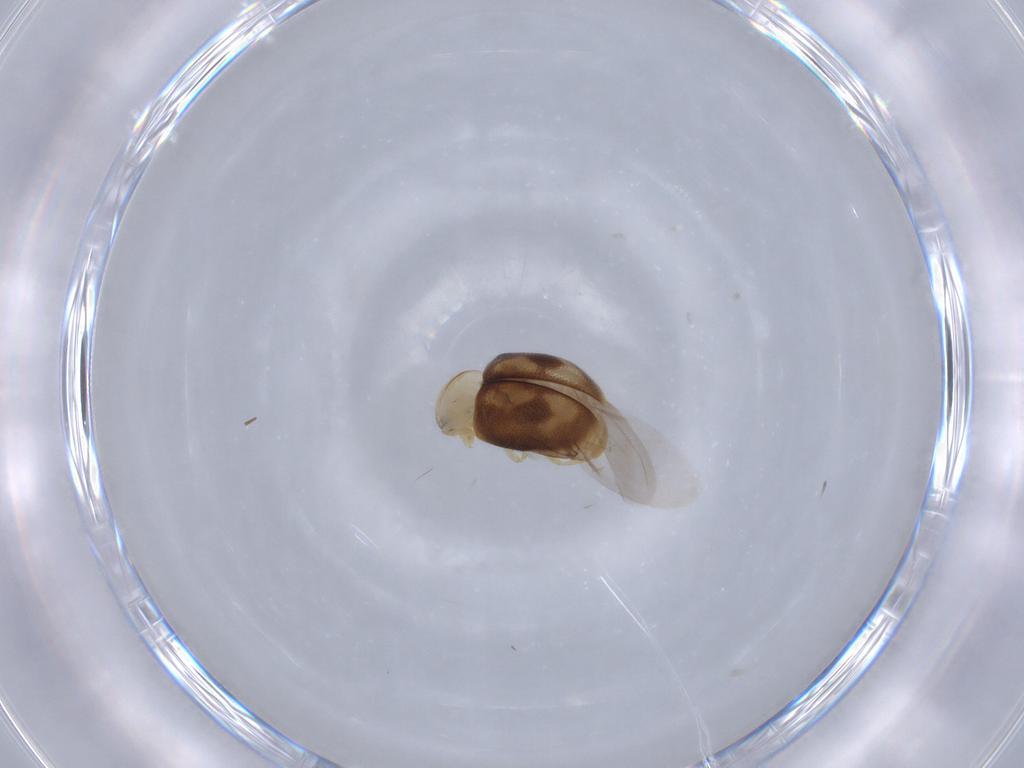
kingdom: Animalia
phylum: Arthropoda
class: Insecta
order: Coleoptera
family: Coccinellidae
